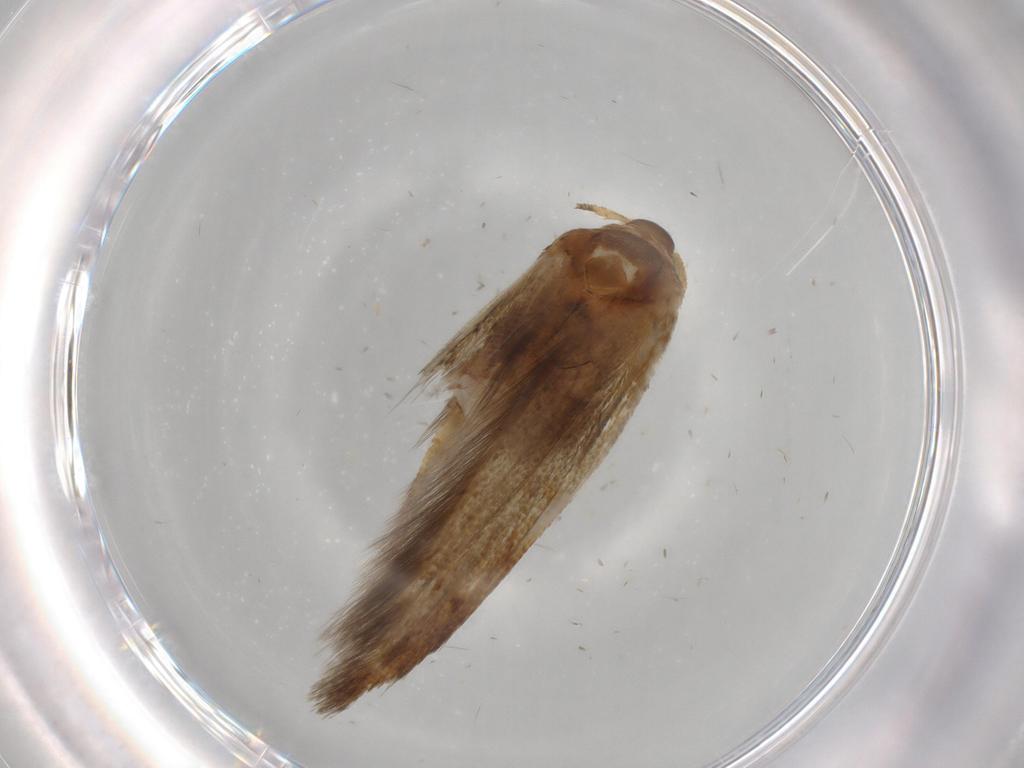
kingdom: Animalia
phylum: Arthropoda
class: Insecta
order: Lepidoptera
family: Blastobasidae
